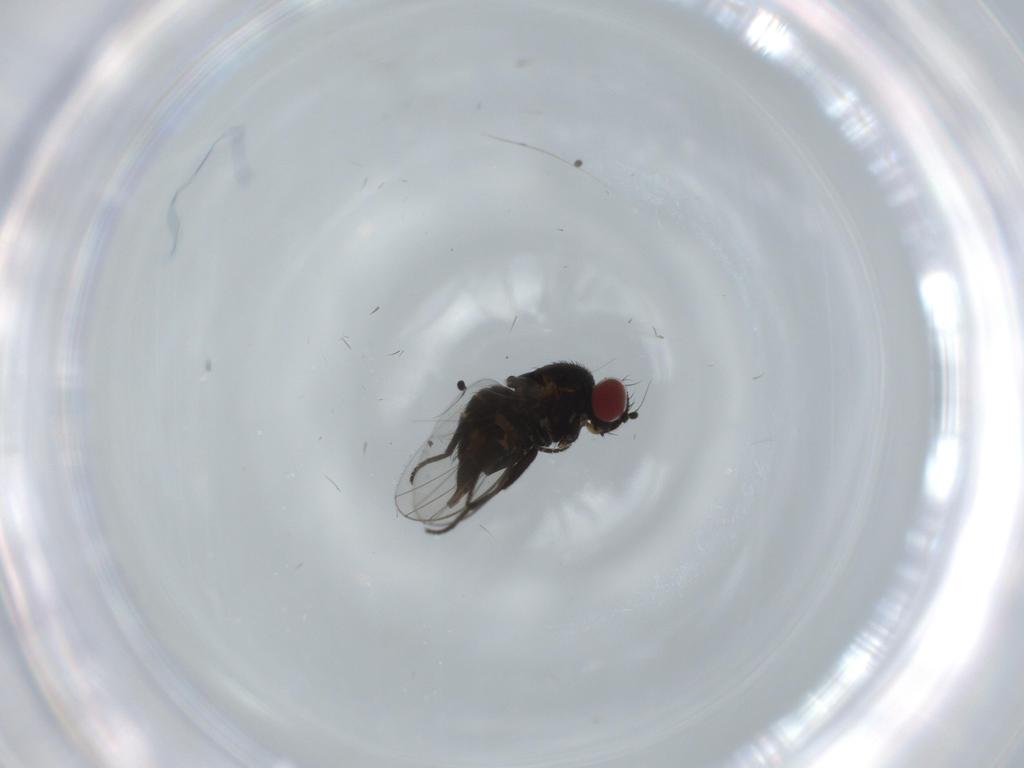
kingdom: Animalia
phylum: Arthropoda
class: Insecta
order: Diptera
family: Agromyzidae
